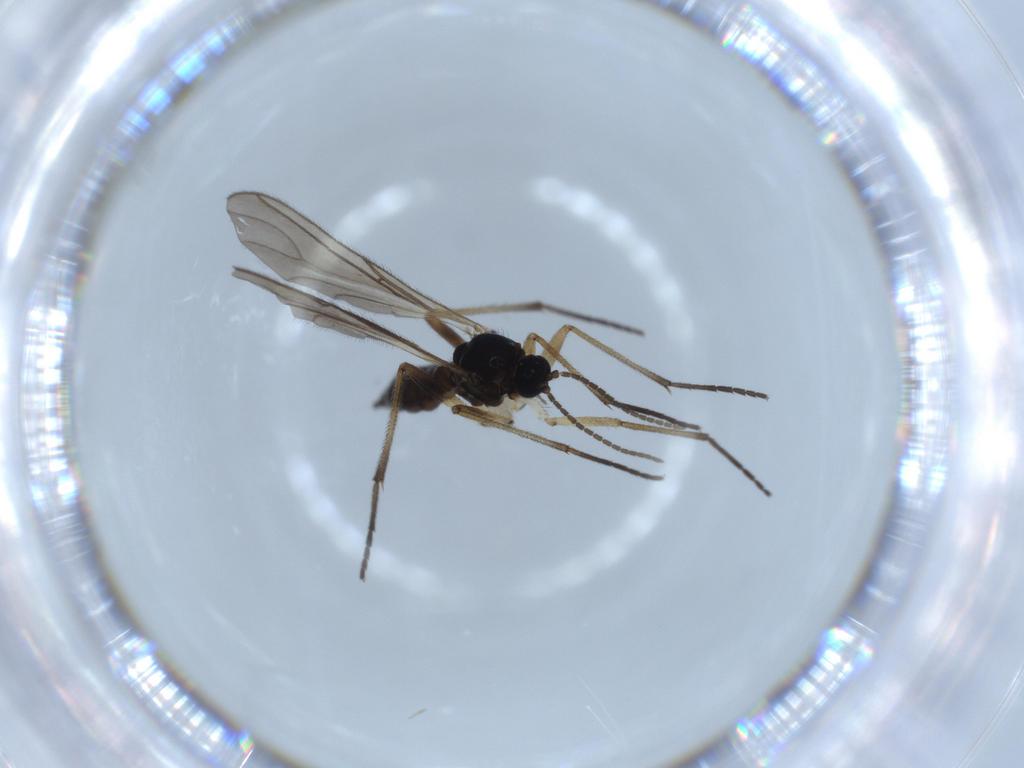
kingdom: Animalia
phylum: Arthropoda
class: Insecta
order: Diptera
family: Sciaridae
